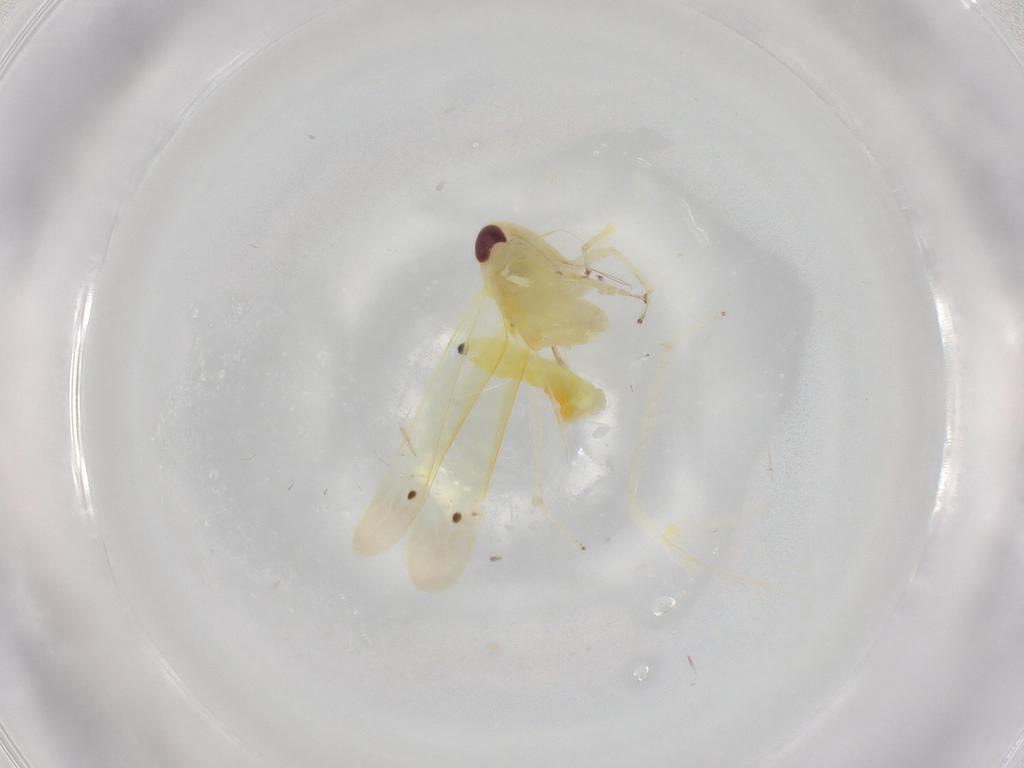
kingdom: Animalia
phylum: Arthropoda
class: Insecta
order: Hemiptera
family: Cicadellidae
